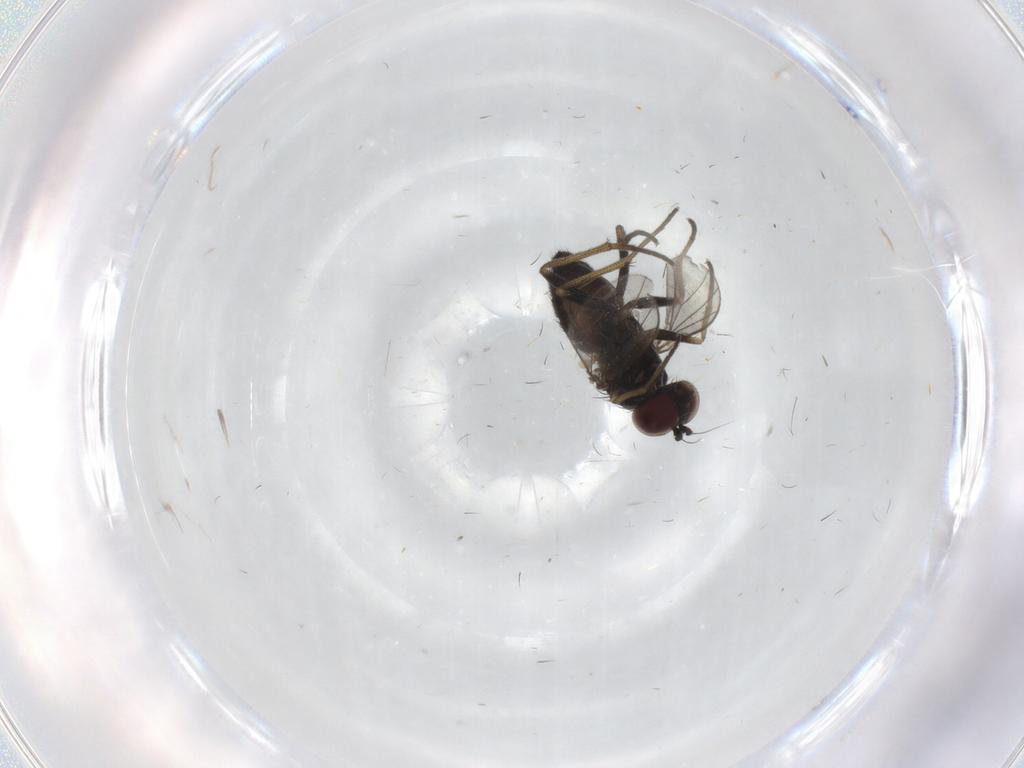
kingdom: Animalia
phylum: Arthropoda
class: Insecta
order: Diptera
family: Dolichopodidae
